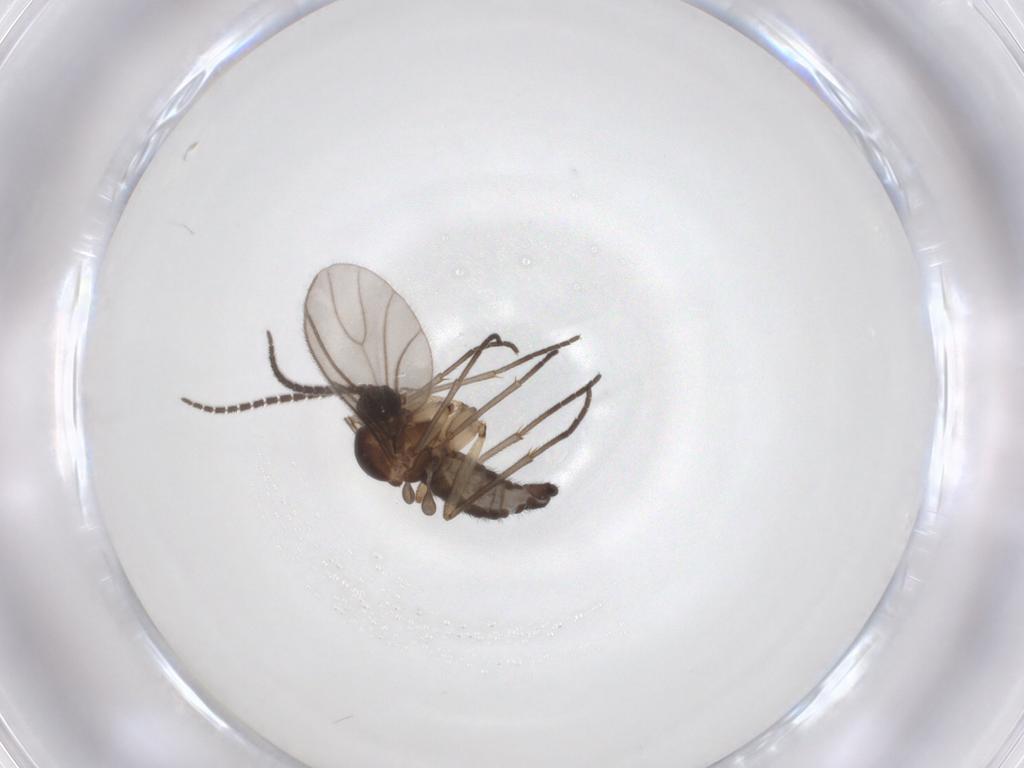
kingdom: Animalia
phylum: Arthropoda
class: Insecta
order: Diptera
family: Sciaridae
